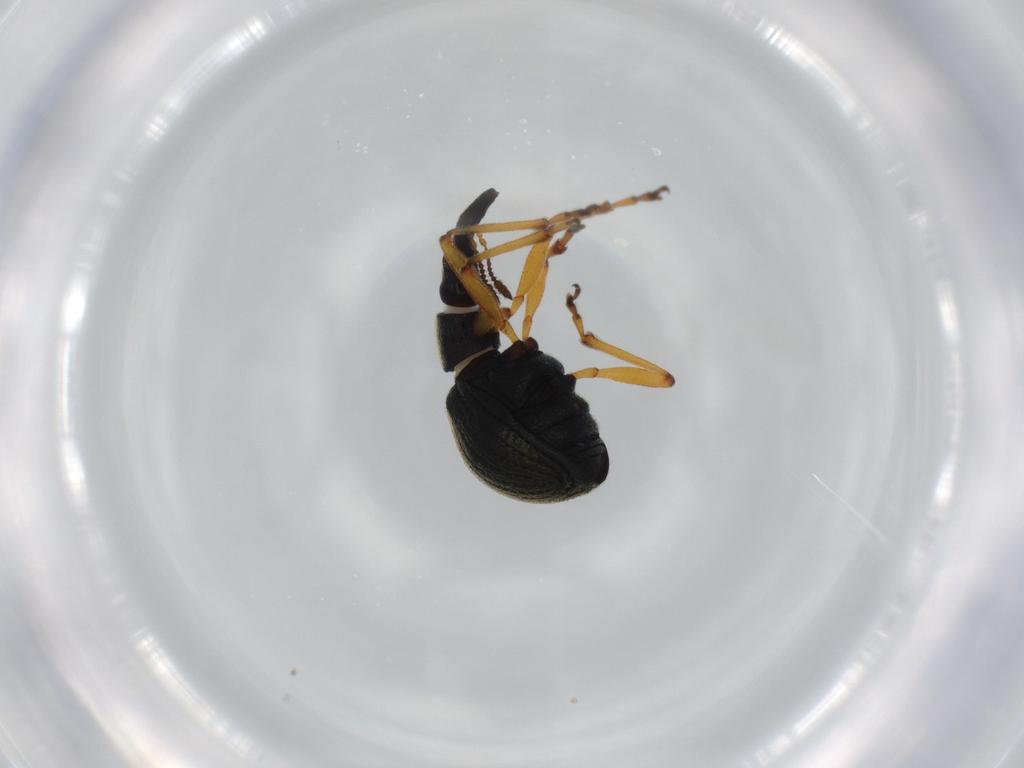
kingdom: Animalia
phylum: Arthropoda
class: Insecta
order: Coleoptera
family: Brentidae
